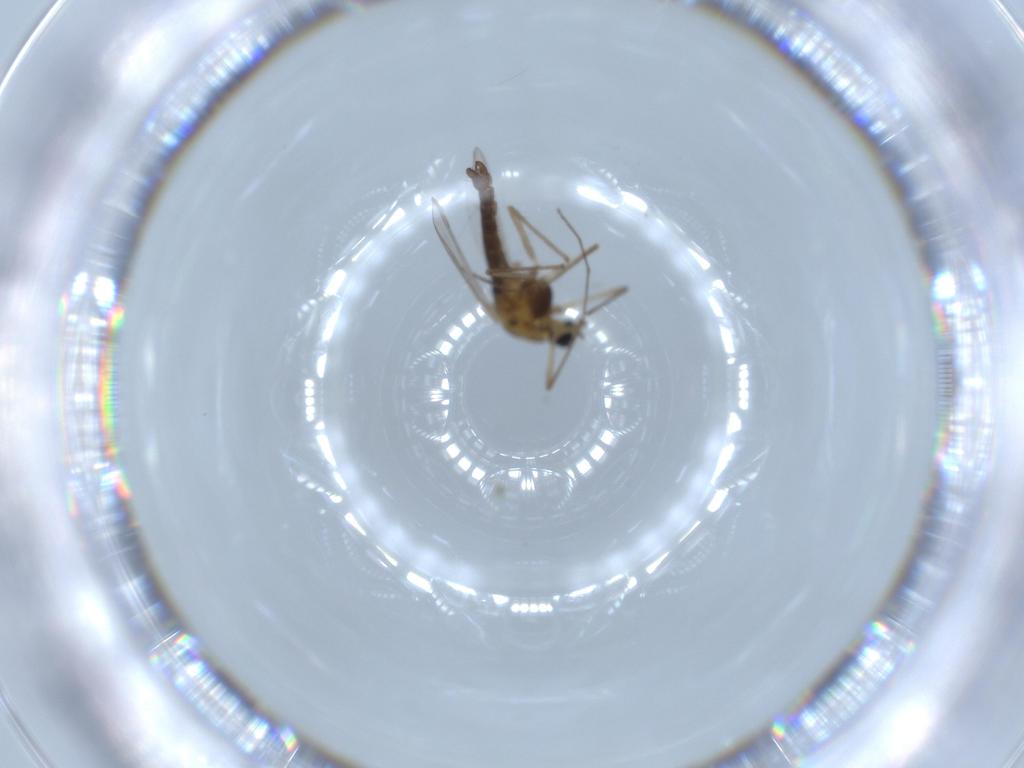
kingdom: Animalia
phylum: Arthropoda
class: Insecta
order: Diptera
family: Chironomidae
